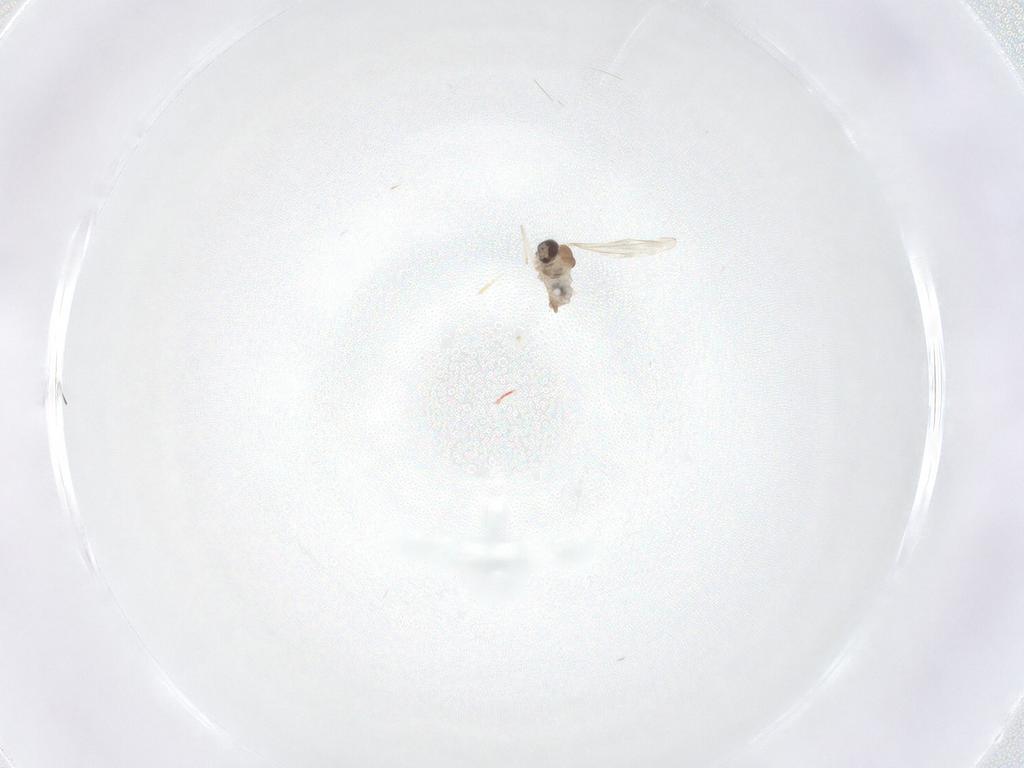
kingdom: Animalia
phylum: Arthropoda
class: Insecta
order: Diptera
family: Cecidomyiidae
